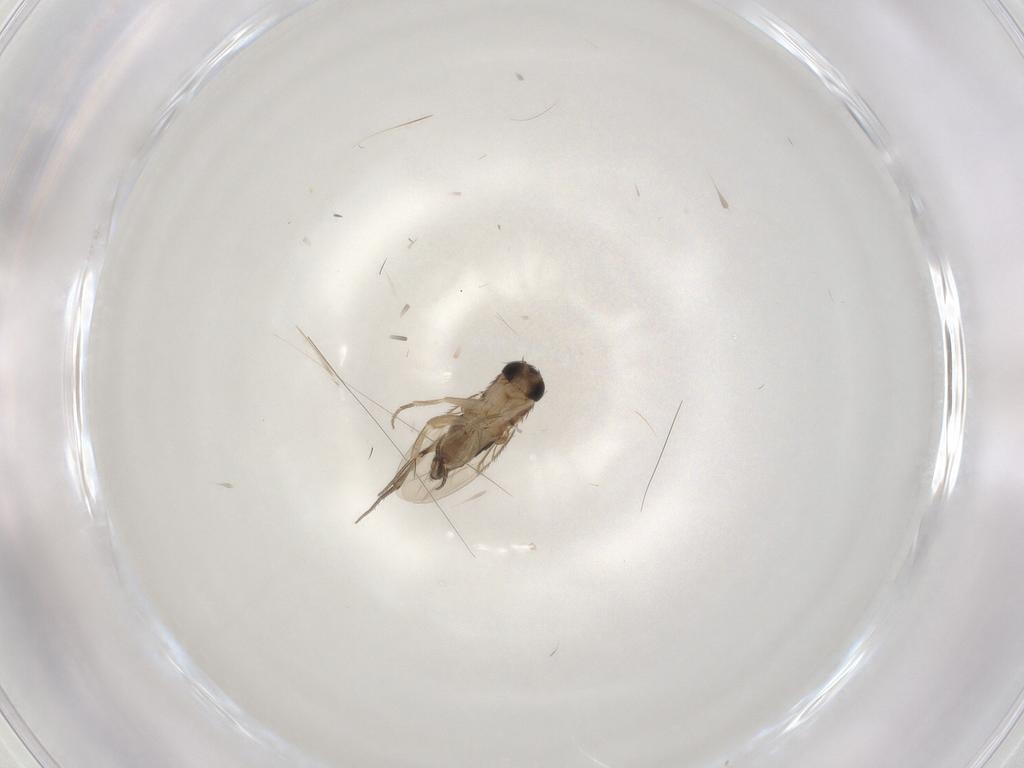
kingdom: Animalia
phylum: Arthropoda
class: Insecta
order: Diptera
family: Phoridae
